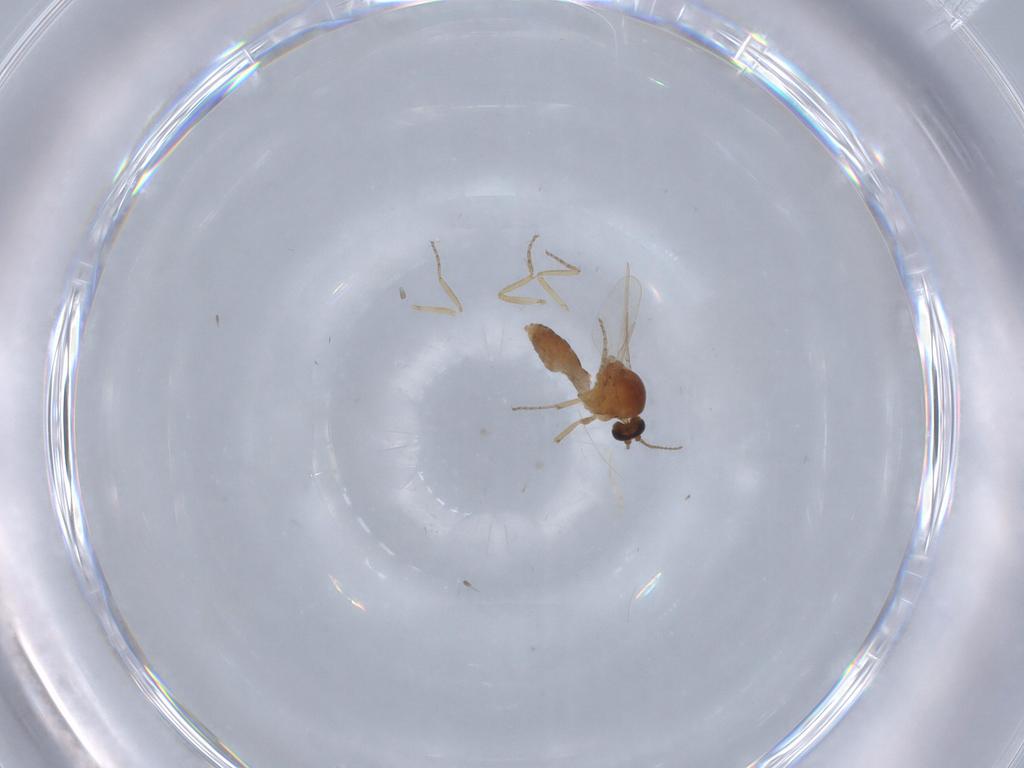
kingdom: Animalia
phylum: Arthropoda
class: Insecta
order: Diptera
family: Ceratopogonidae
